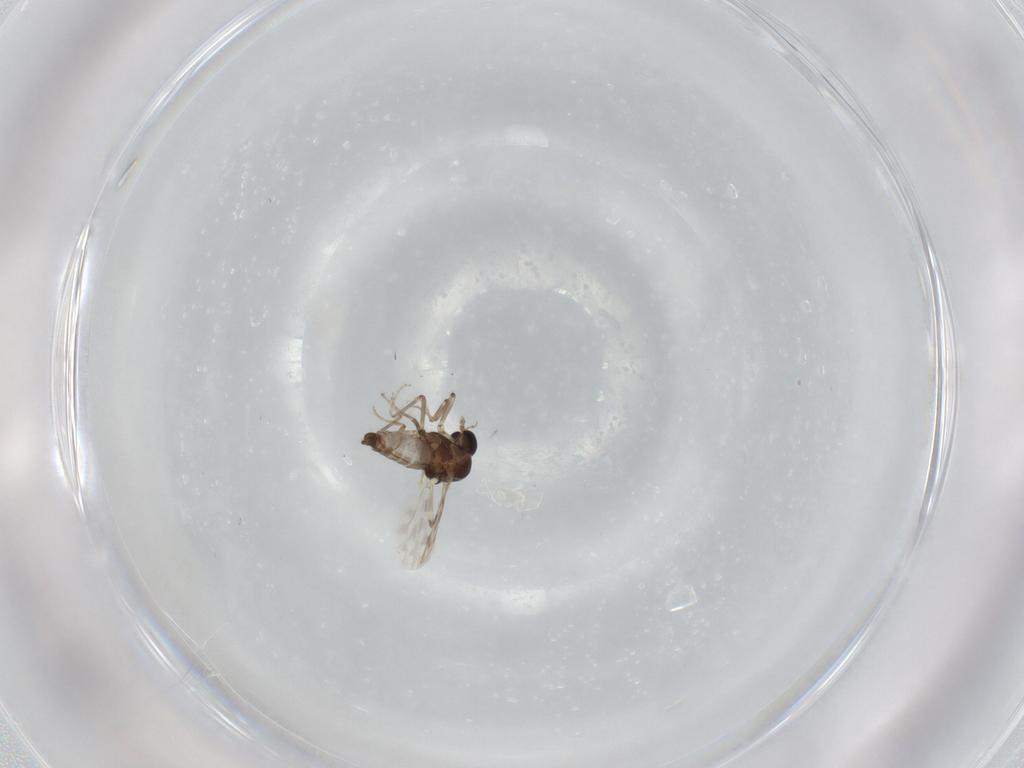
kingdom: Animalia
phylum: Arthropoda
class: Insecta
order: Diptera
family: Ceratopogonidae
